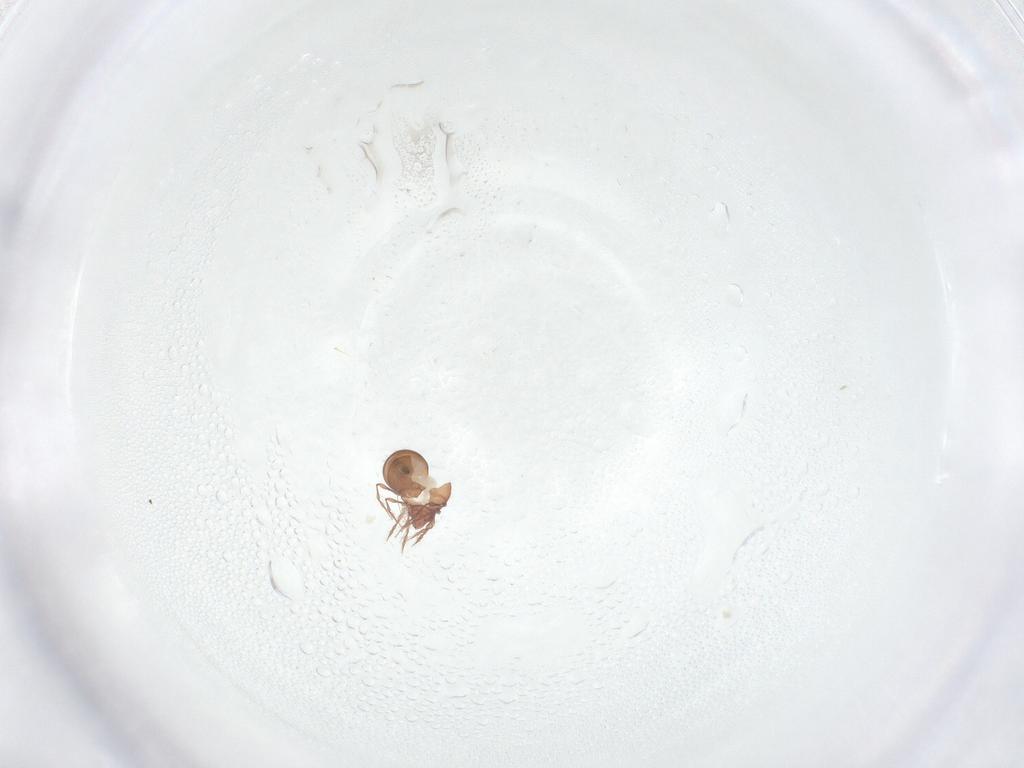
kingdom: Animalia
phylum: Arthropoda
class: Arachnida
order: Sarcoptiformes
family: Oppiidae
